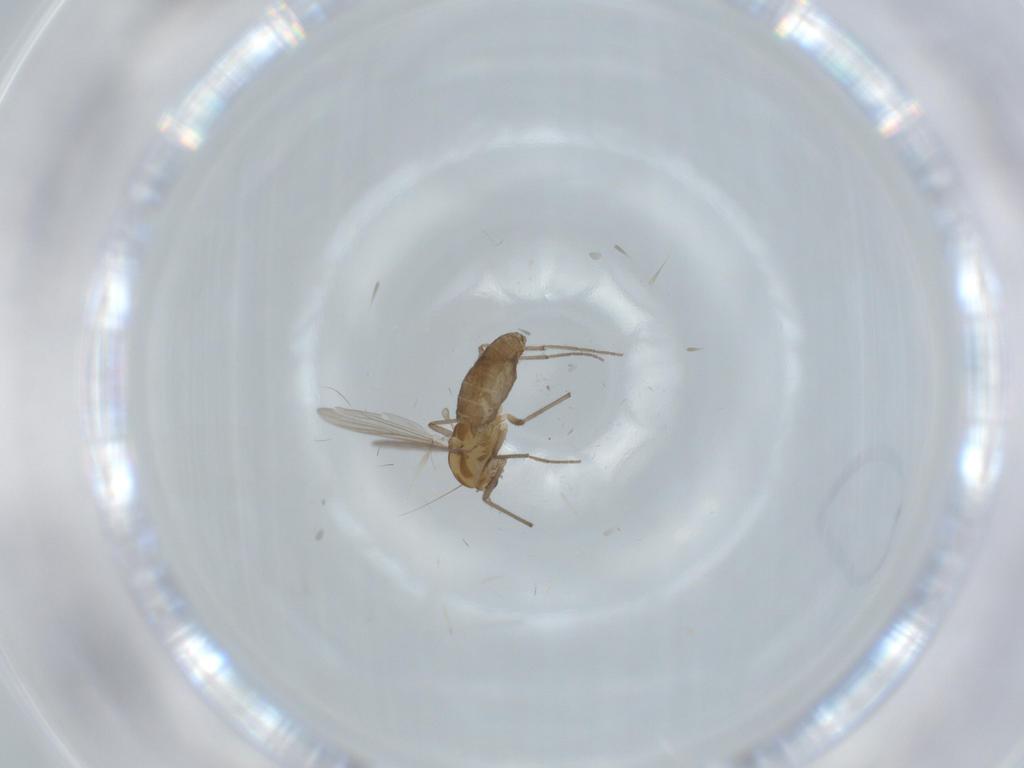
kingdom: Animalia
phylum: Arthropoda
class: Insecta
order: Diptera
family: Chironomidae
